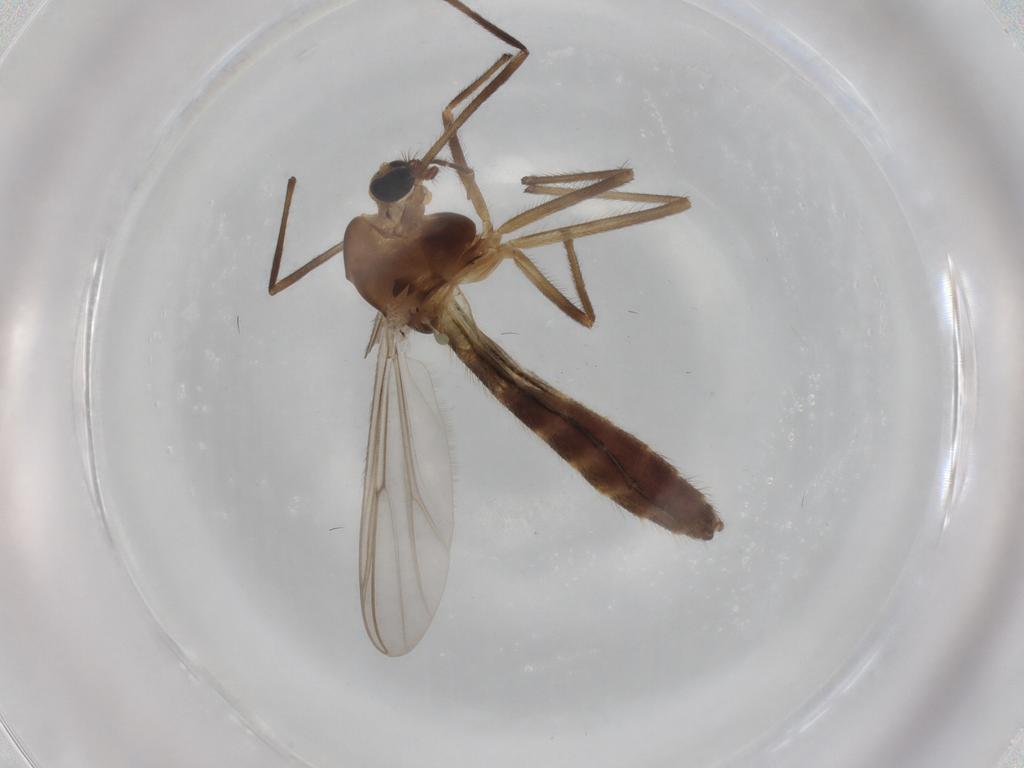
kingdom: Animalia
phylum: Arthropoda
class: Insecta
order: Diptera
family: Chironomidae
